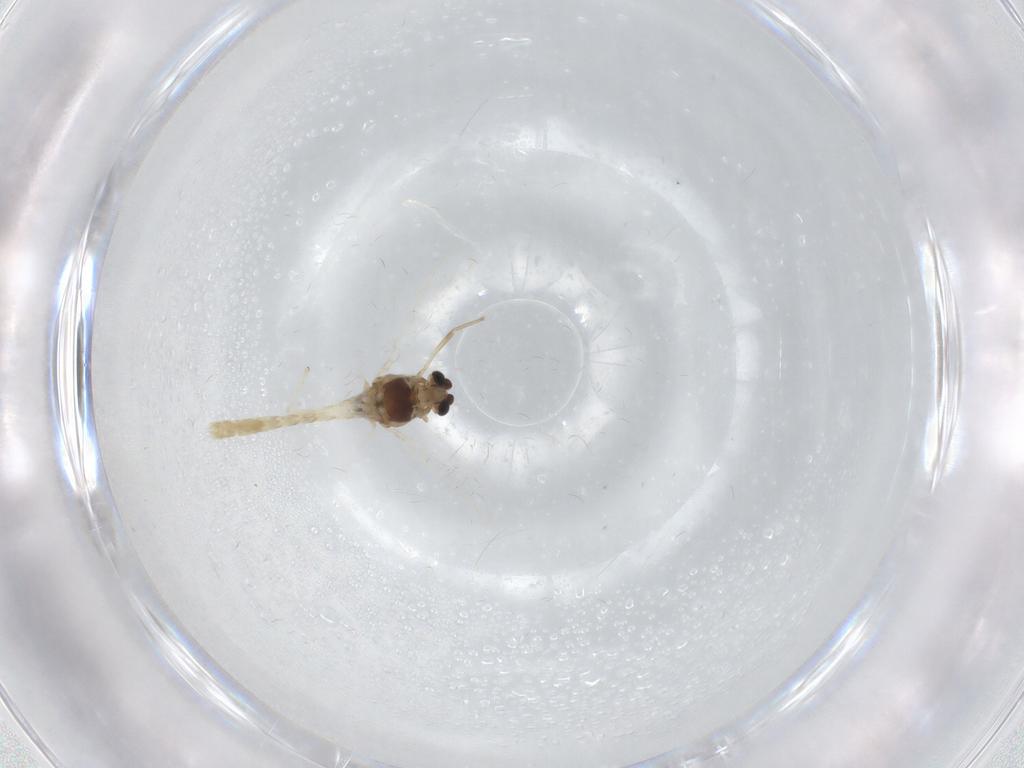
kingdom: Animalia
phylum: Arthropoda
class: Insecta
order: Diptera
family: Chironomidae
